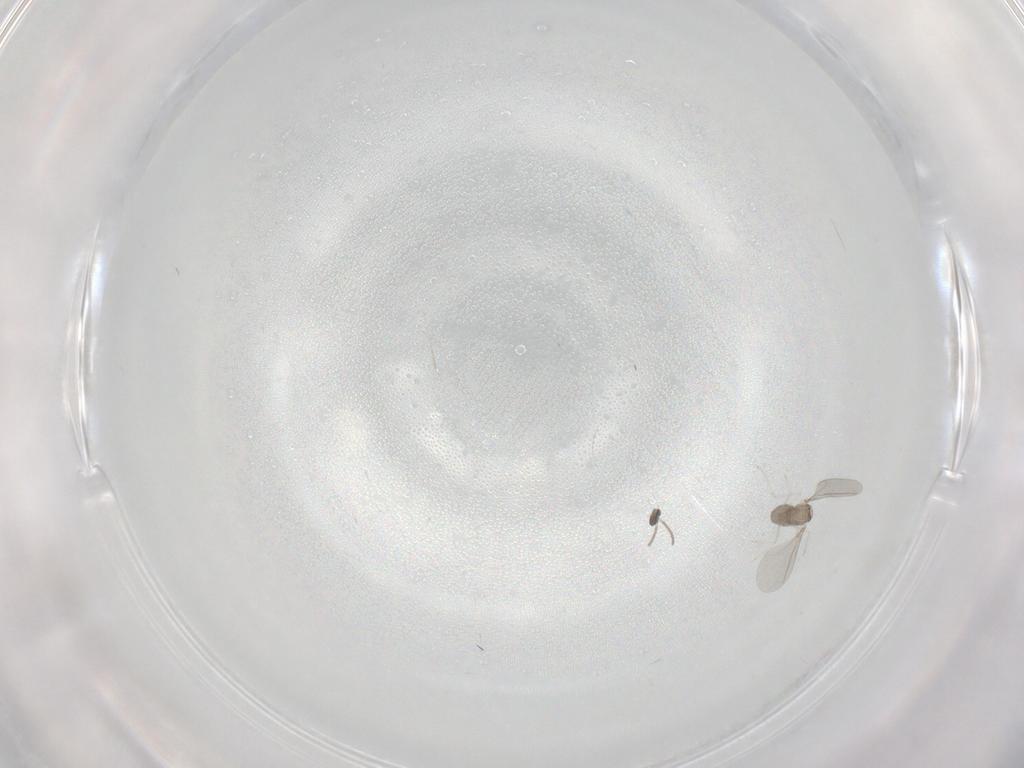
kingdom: Animalia
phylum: Arthropoda
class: Insecta
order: Diptera
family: Cecidomyiidae
